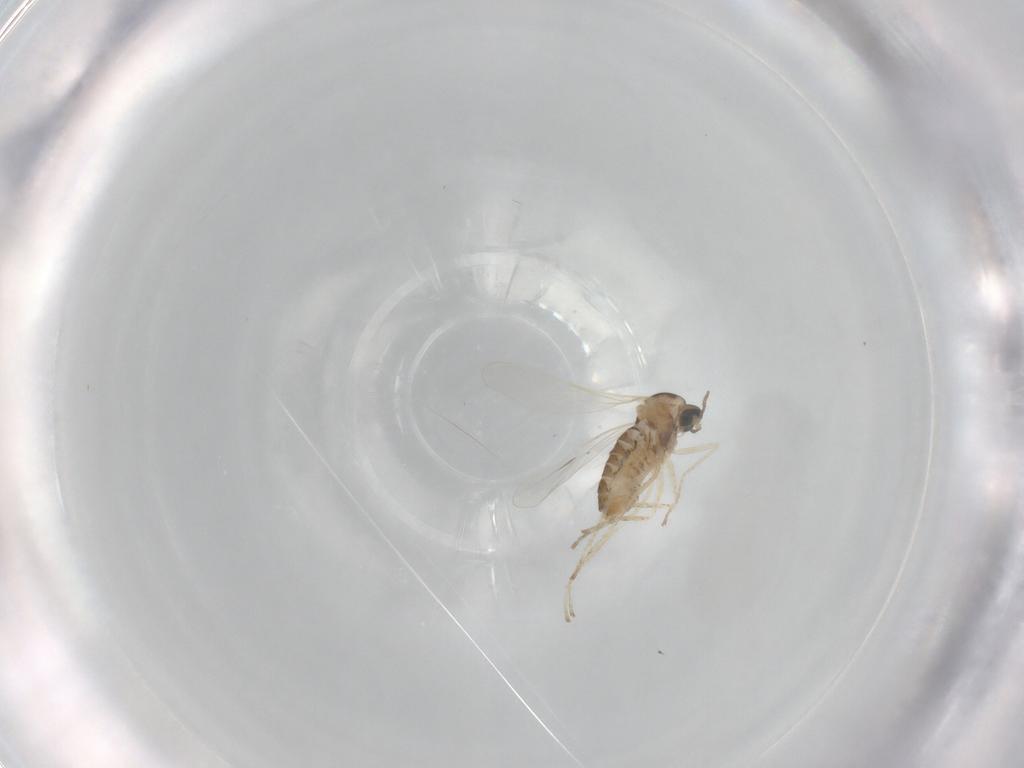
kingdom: Animalia
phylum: Arthropoda
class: Insecta
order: Diptera
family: Cecidomyiidae
